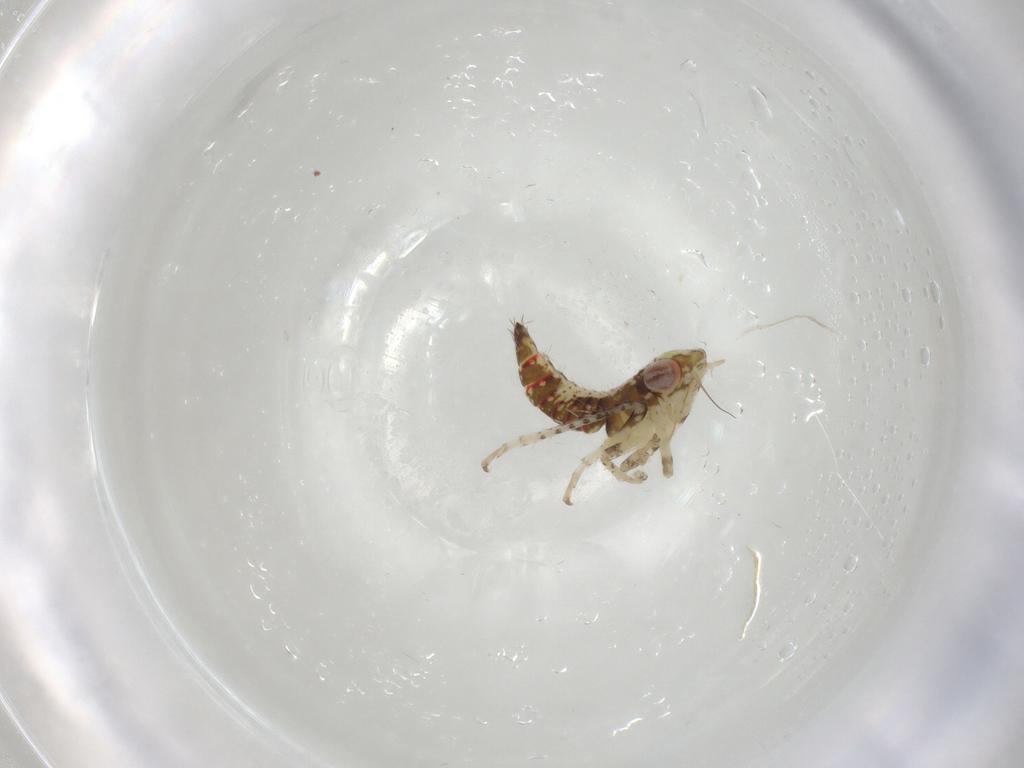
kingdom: Animalia
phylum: Arthropoda
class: Insecta
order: Hemiptera
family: Cicadellidae
